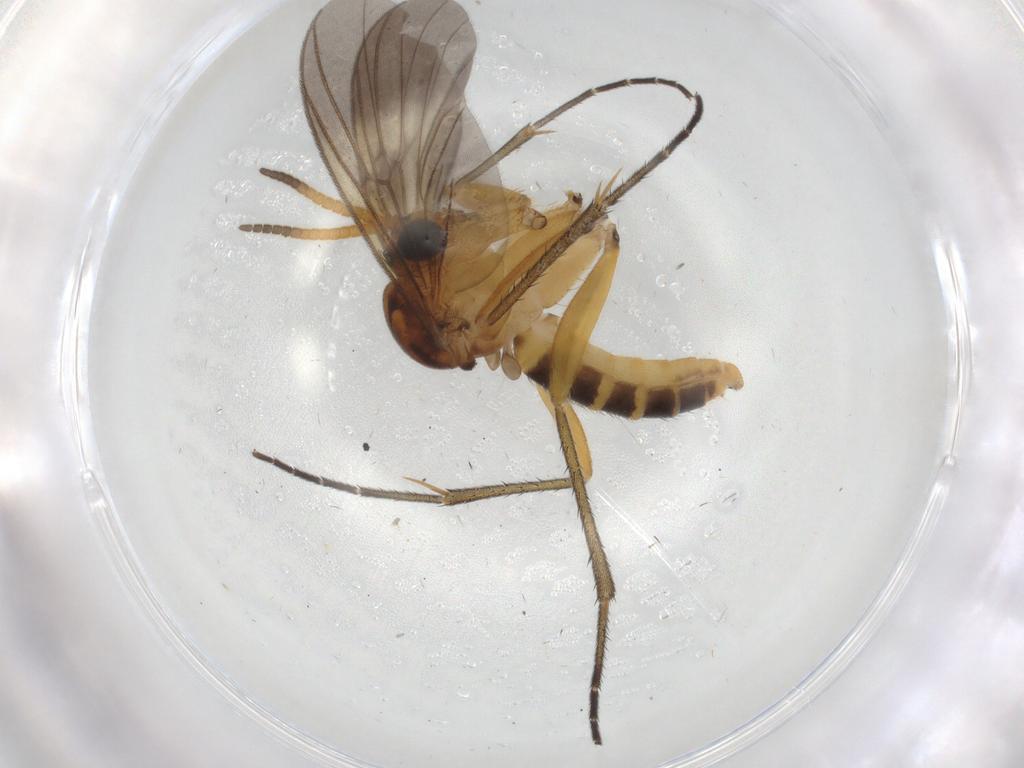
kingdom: Animalia
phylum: Arthropoda
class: Insecta
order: Diptera
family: Sciaridae
